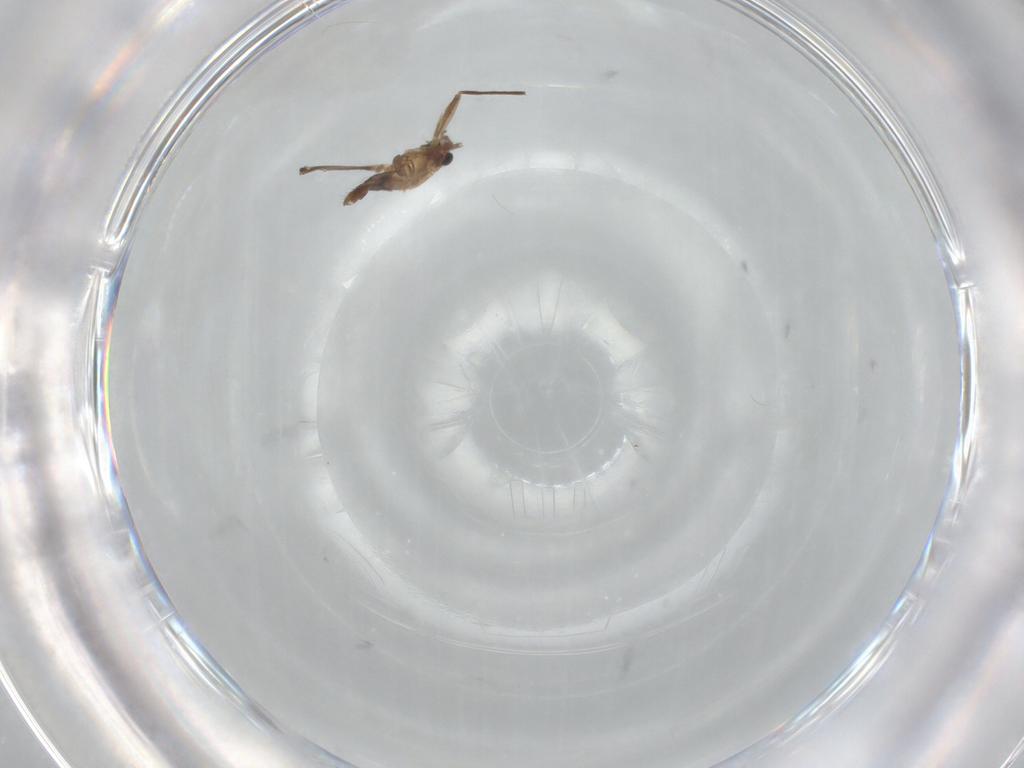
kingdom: Animalia
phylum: Arthropoda
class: Insecta
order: Diptera
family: Chironomidae
